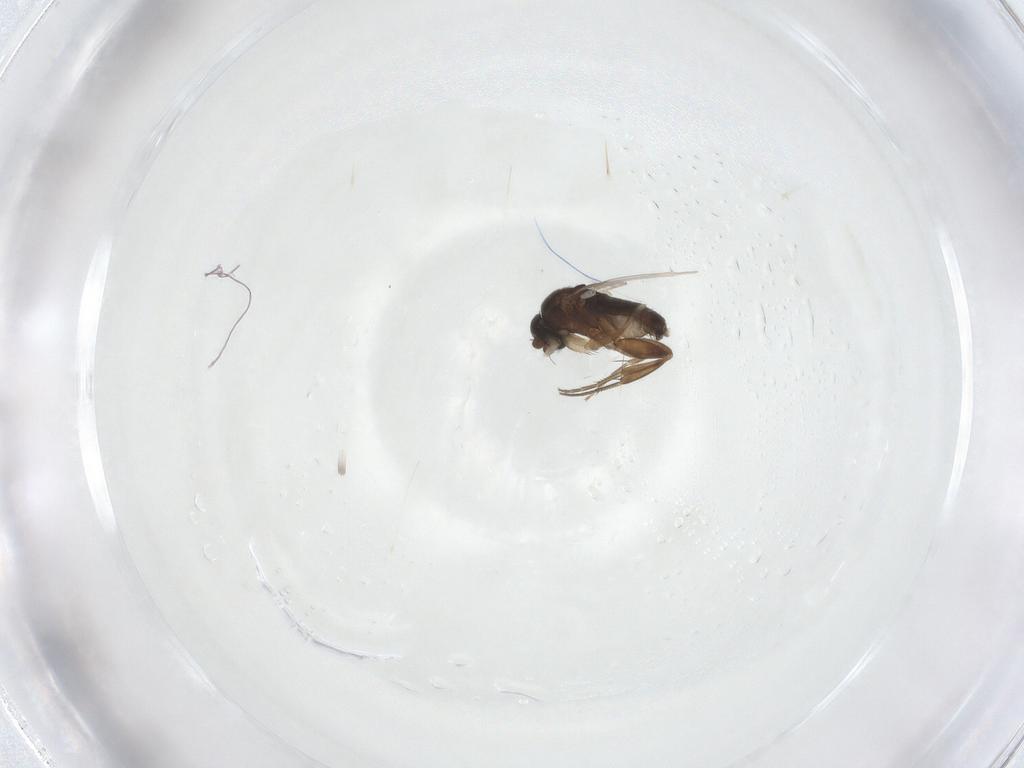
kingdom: Animalia
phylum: Arthropoda
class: Insecta
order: Diptera
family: Phoridae
